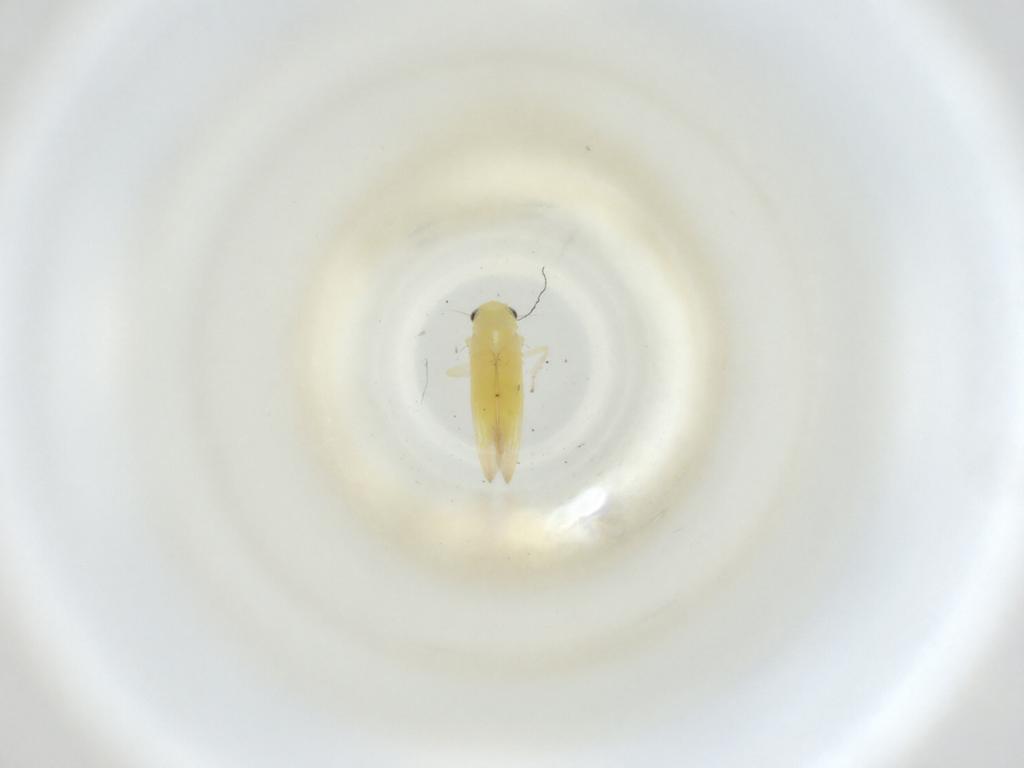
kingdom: Animalia
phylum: Arthropoda
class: Insecta
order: Hemiptera
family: Cicadellidae
